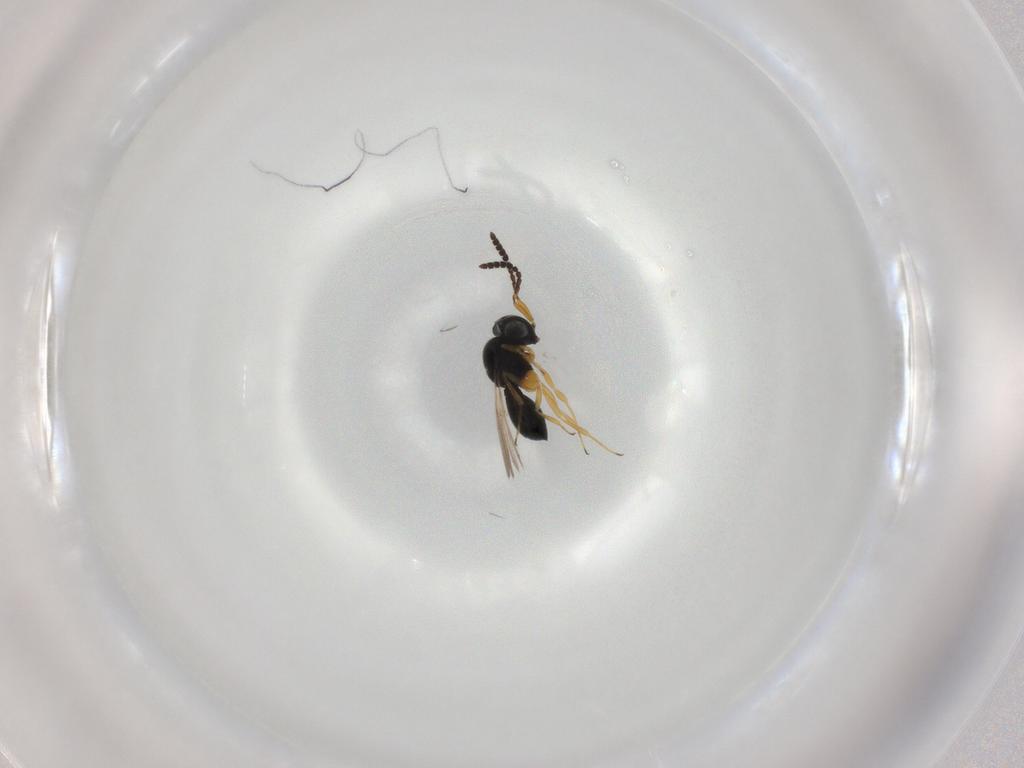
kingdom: Animalia
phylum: Arthropoda
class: Insecta
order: Hymenoptera
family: Scelionidae
